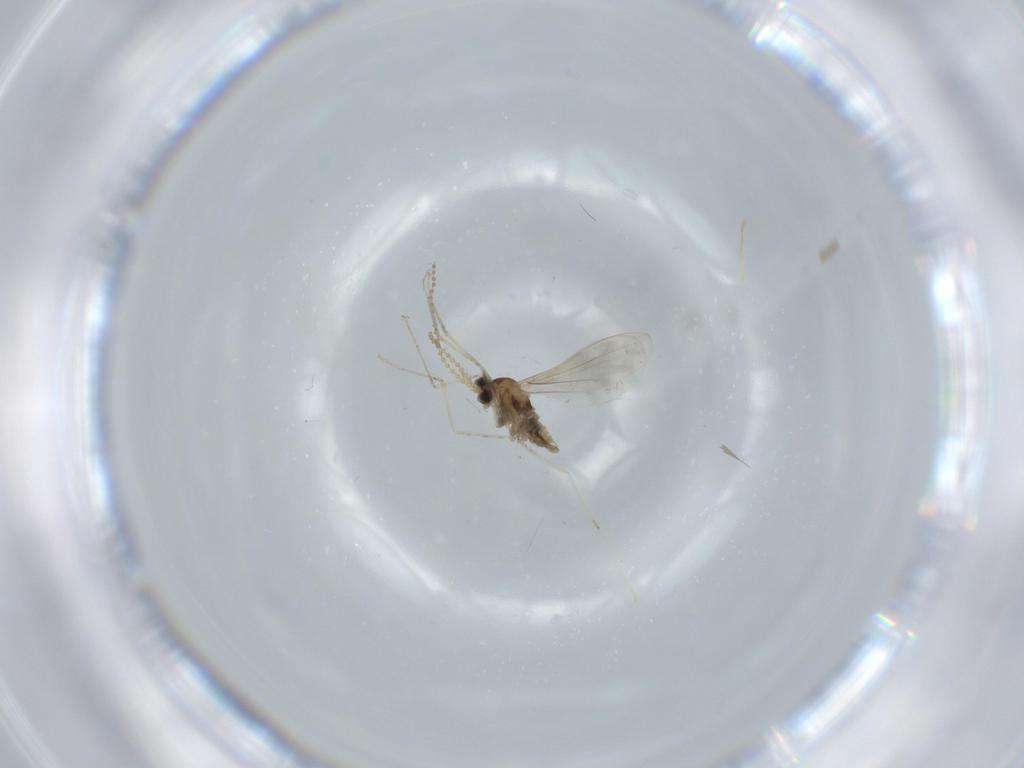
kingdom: Animalia
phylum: Arthropoda
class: Insecta
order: Diptera
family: Cecidomyiidae
